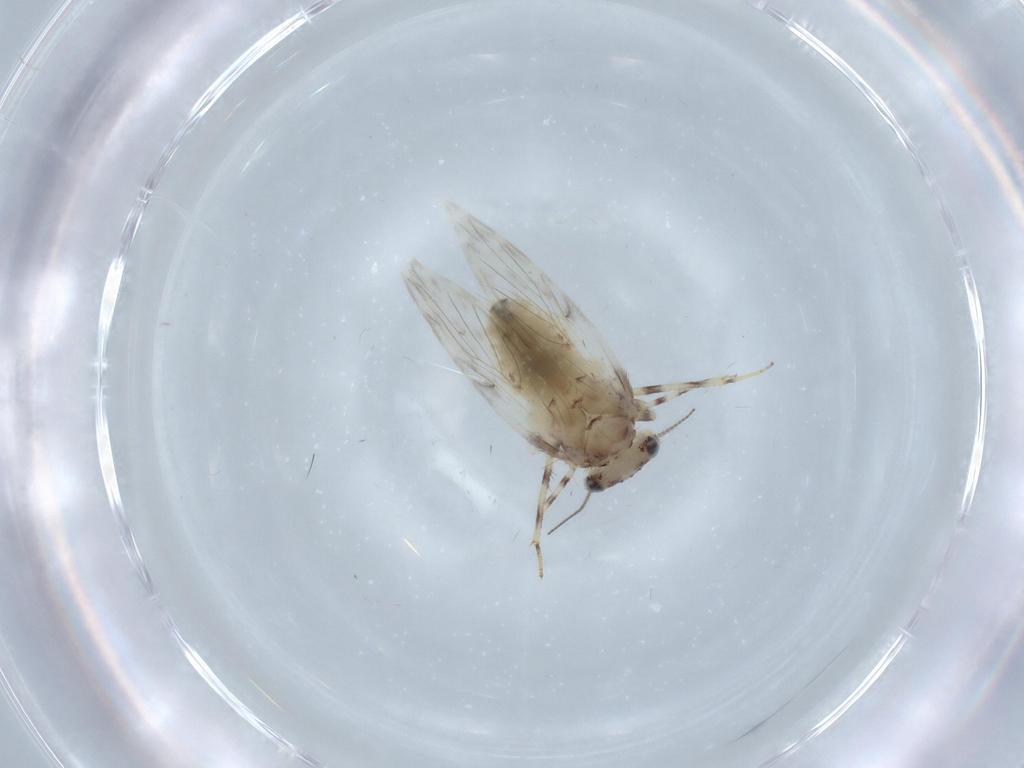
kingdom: Animalia
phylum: Arthropoda
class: Insecta
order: Psocodea
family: Lepidopsocidae
